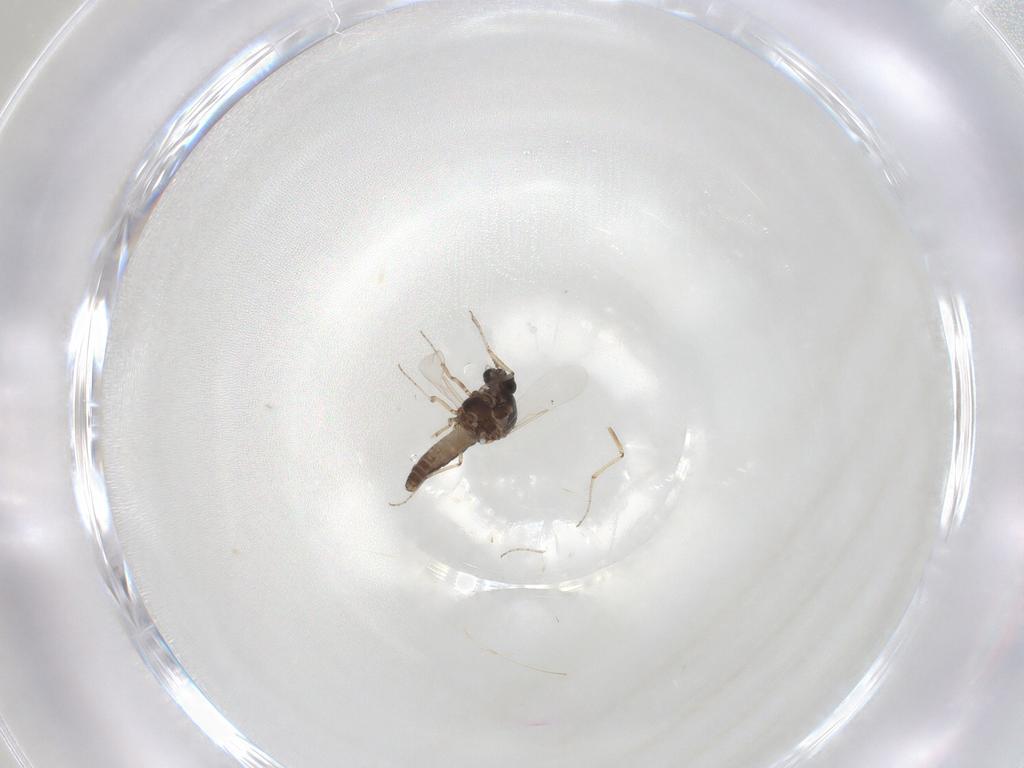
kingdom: Animalia
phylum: Arthropoda
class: Insecta
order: Diptera
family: Ceratopogonidae
